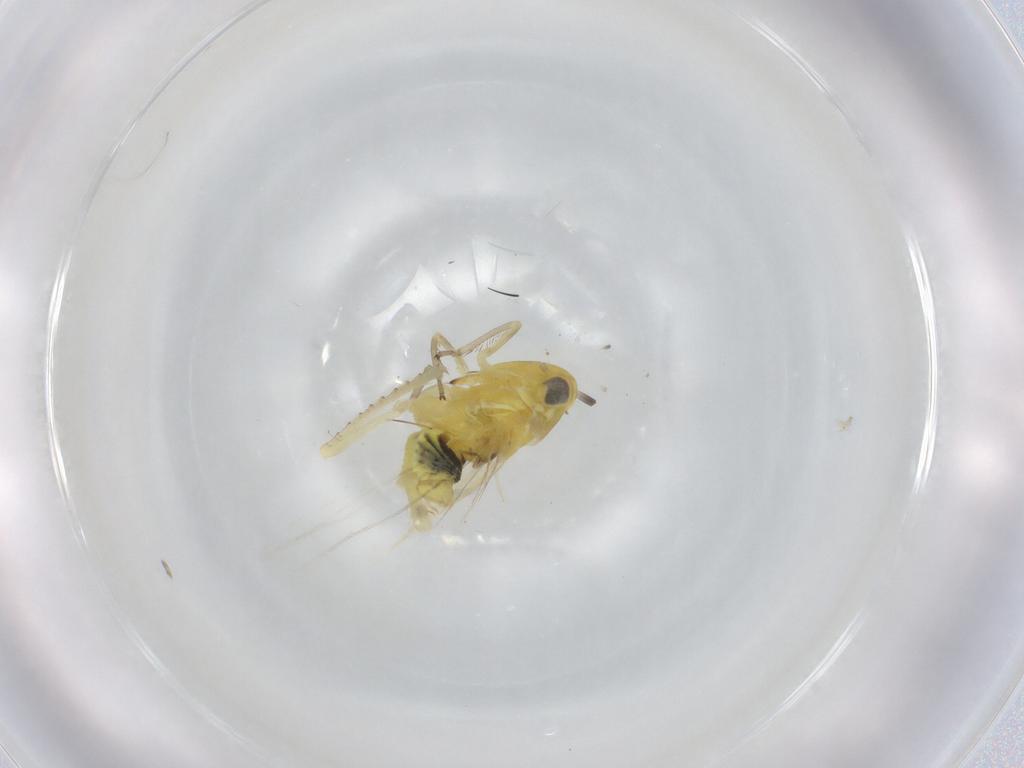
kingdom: Animalia
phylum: Arthropoda
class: Insecta
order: Hemiptera
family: Cicadellidae
